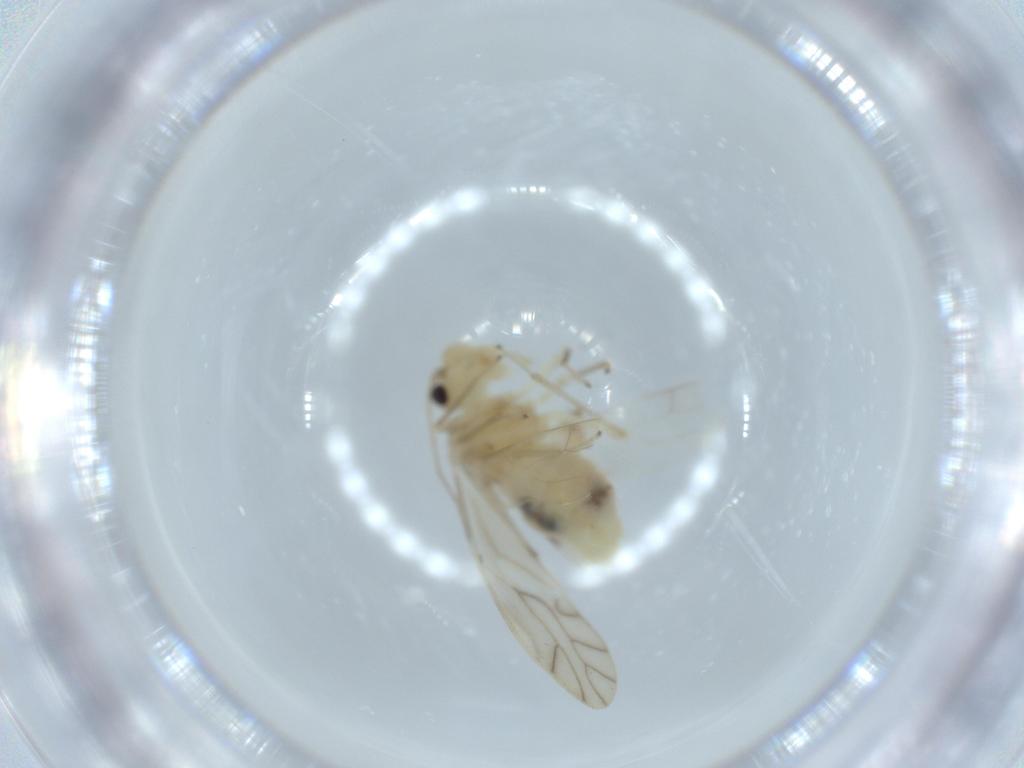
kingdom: Animalia
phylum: Arthropoda
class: Insecta
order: Psocodea
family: Caeciliusidae
